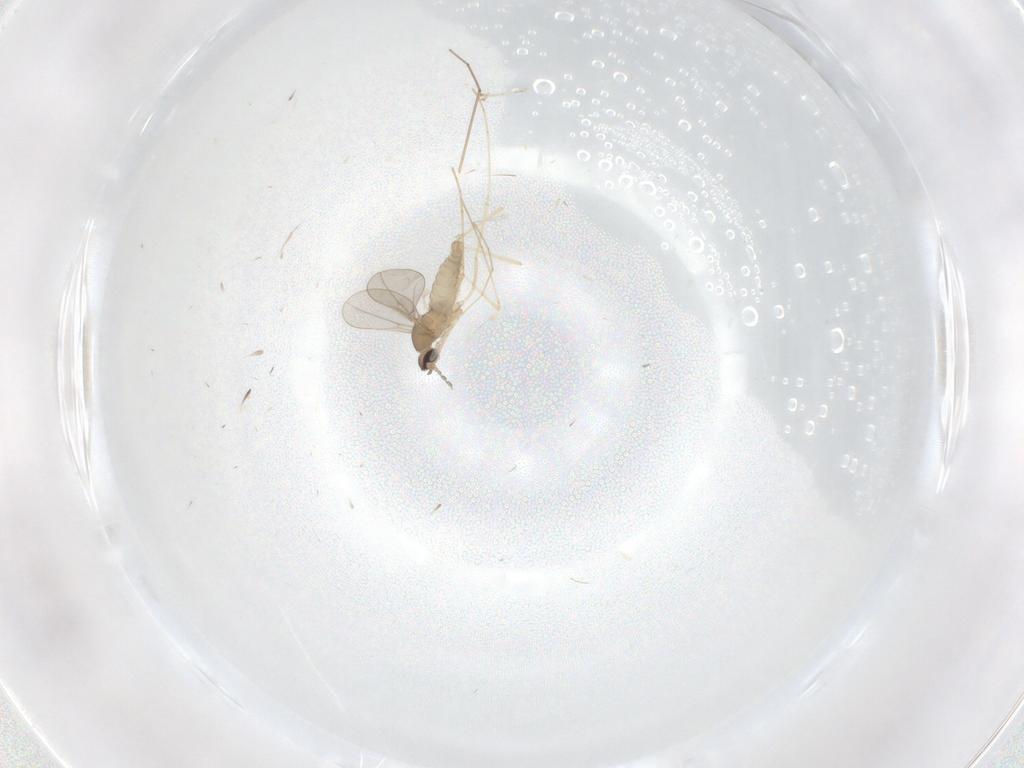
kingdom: Animalia
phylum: Arthropoda
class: Insecta
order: Diptera
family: Cecidomyiidae
